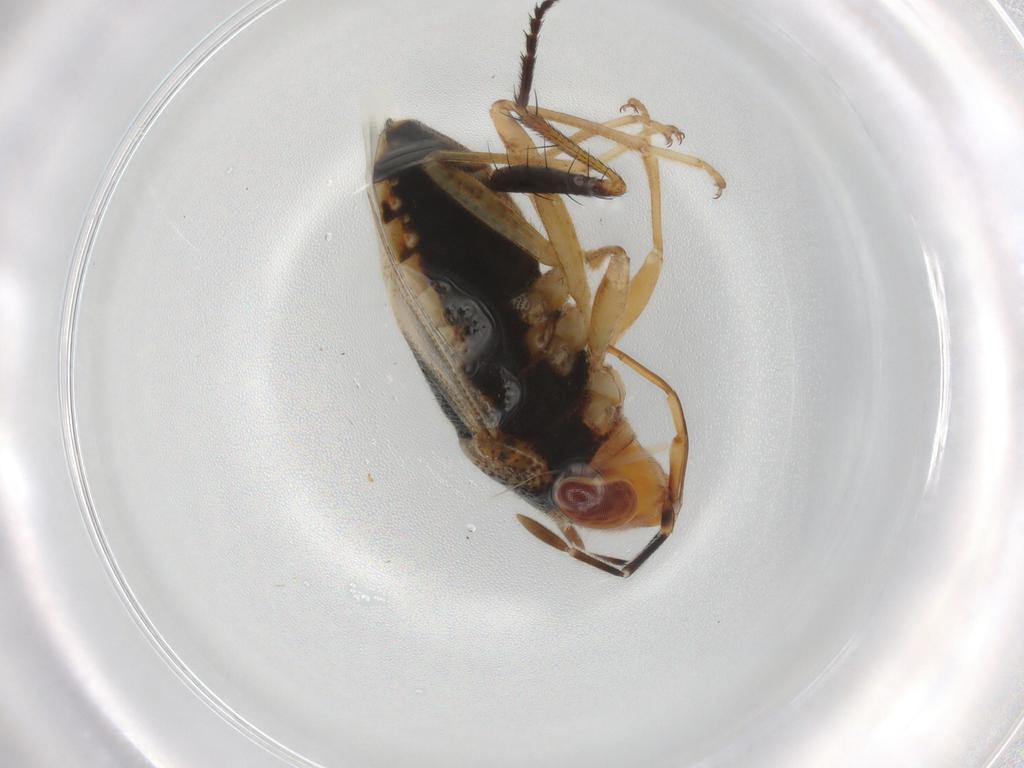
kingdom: Animalia
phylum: Arthropoda
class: Insecta
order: Hemiptera
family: Geocoridae
